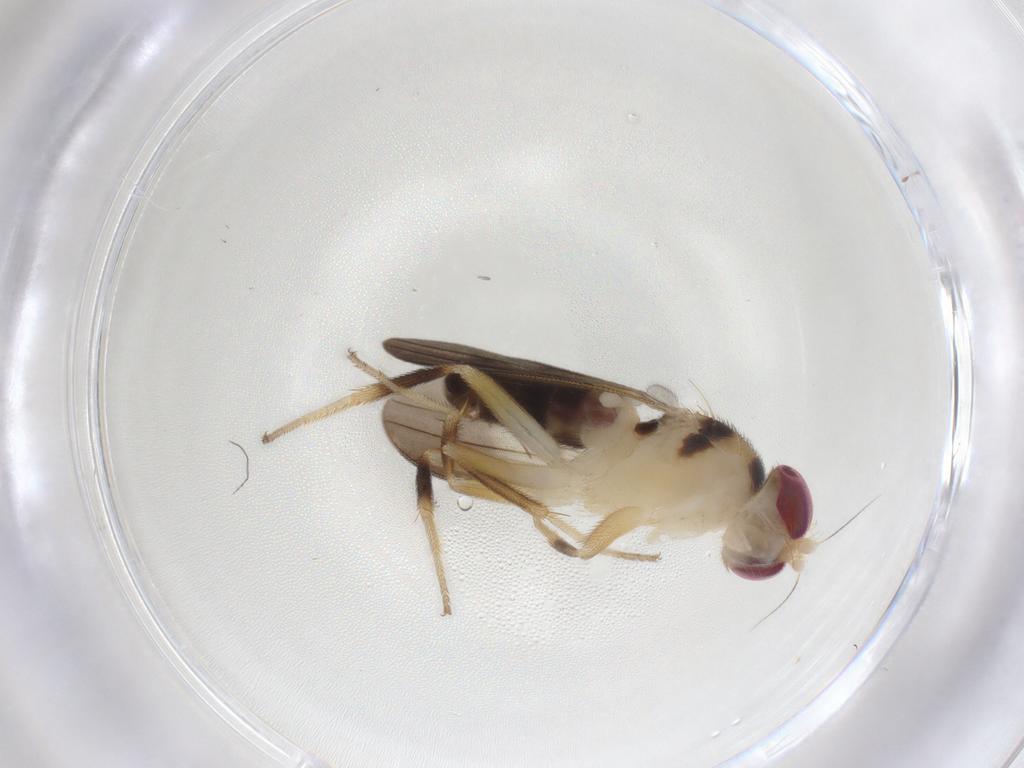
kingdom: Animalia
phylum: Arthropoda
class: Insecta
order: Diptera
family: Clusiidae
